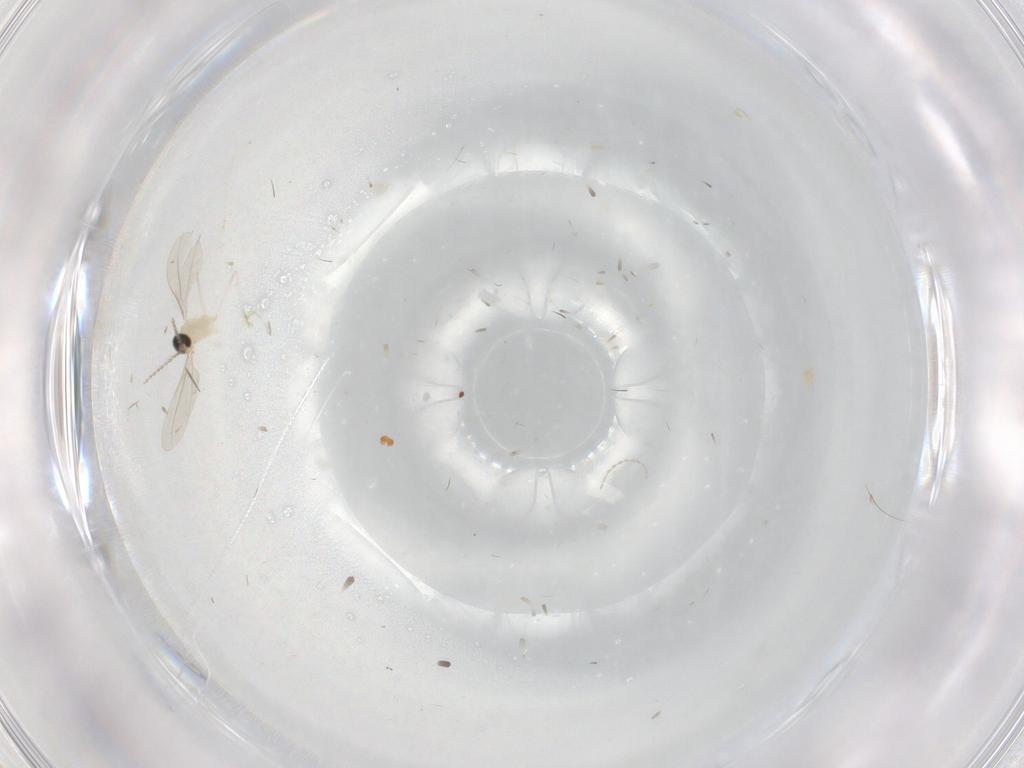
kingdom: Animalia
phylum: Arthropoda
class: Insecta
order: Diptera
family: Cecidomyiidae
